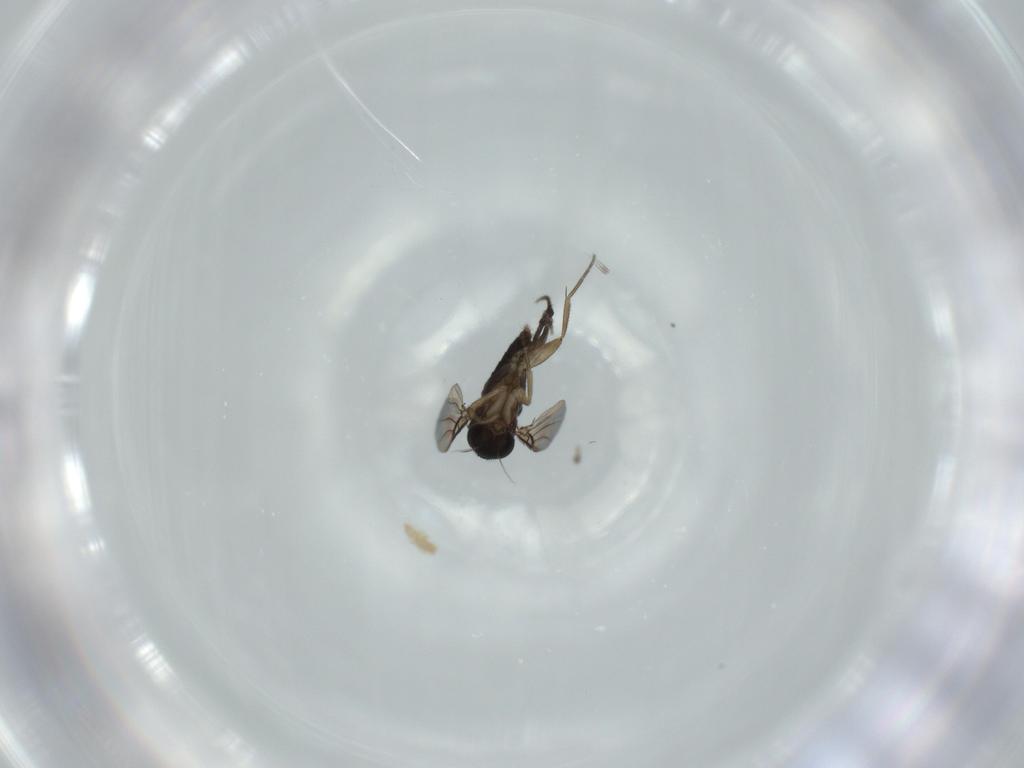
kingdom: Animalia
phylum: Arthropoda
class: Insecta
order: Diptera
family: Phoridae
